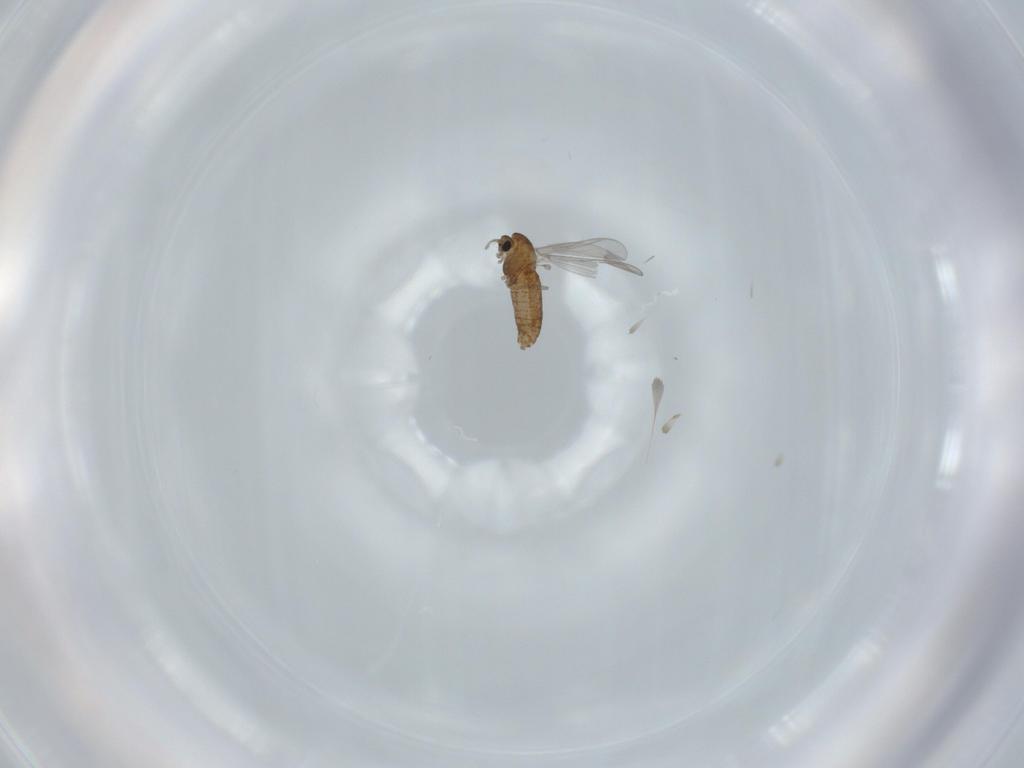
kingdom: Animalia
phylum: Arthropoda
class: Insecta
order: Diptera
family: Chironomidae
